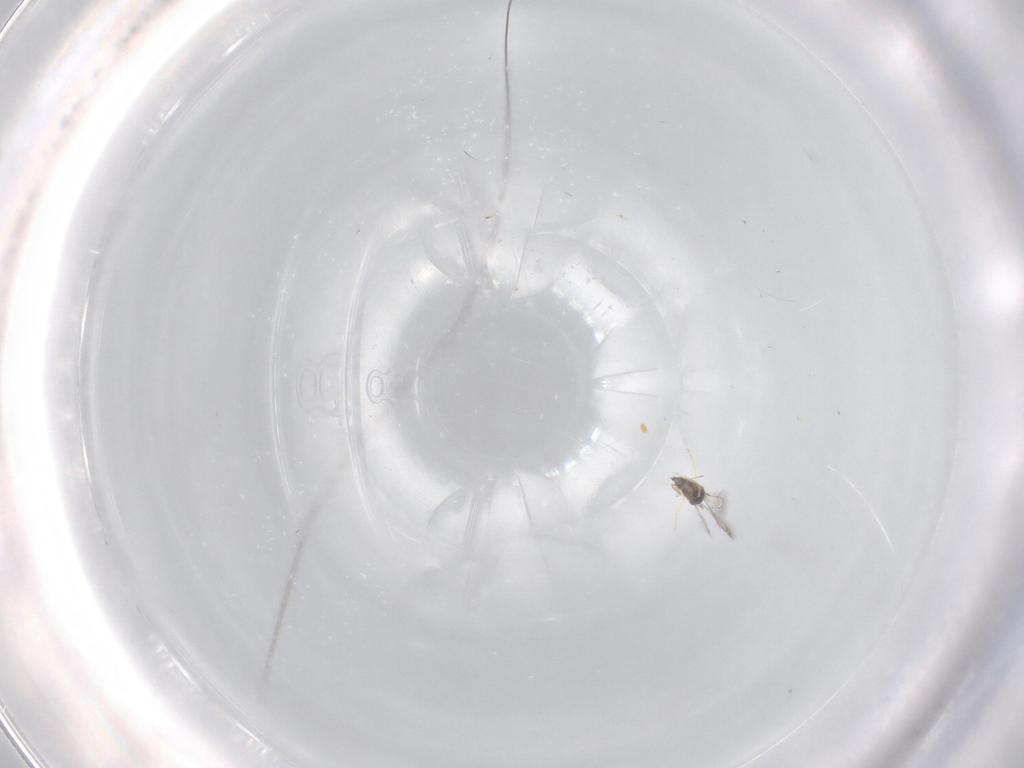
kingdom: Animalia
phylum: Arthropoda
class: Insecta
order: Hymenoptera
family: Mymaridae
